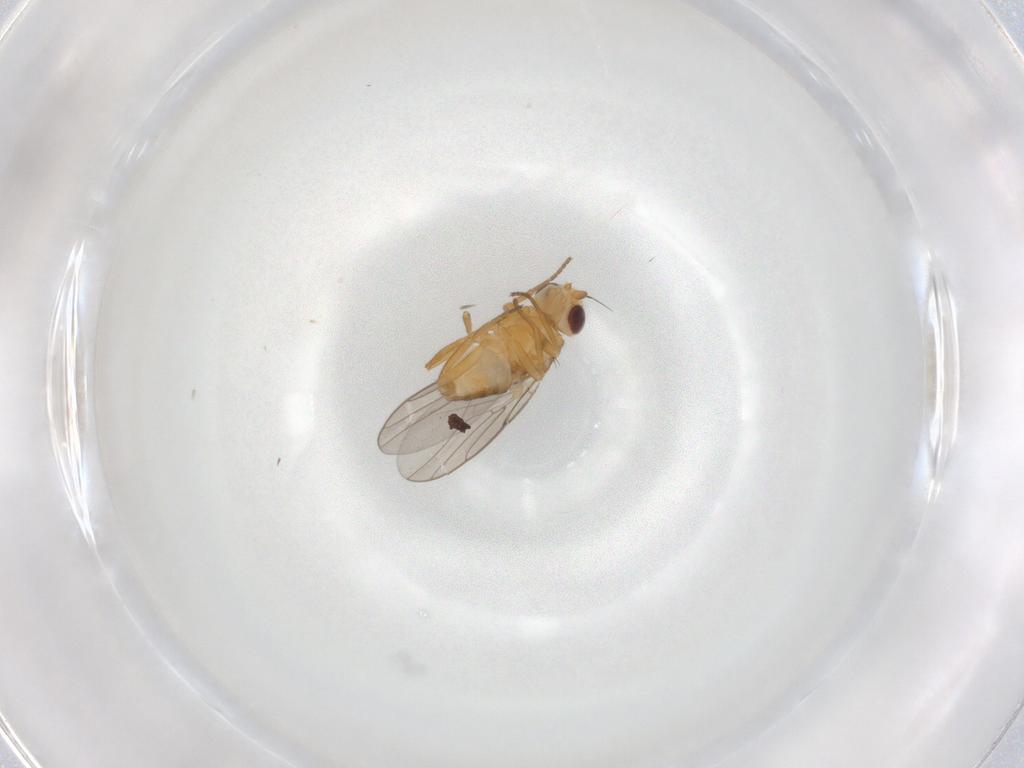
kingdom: Animalia
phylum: Arthropoda
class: Insecta
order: Diptera
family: Chloropidae
